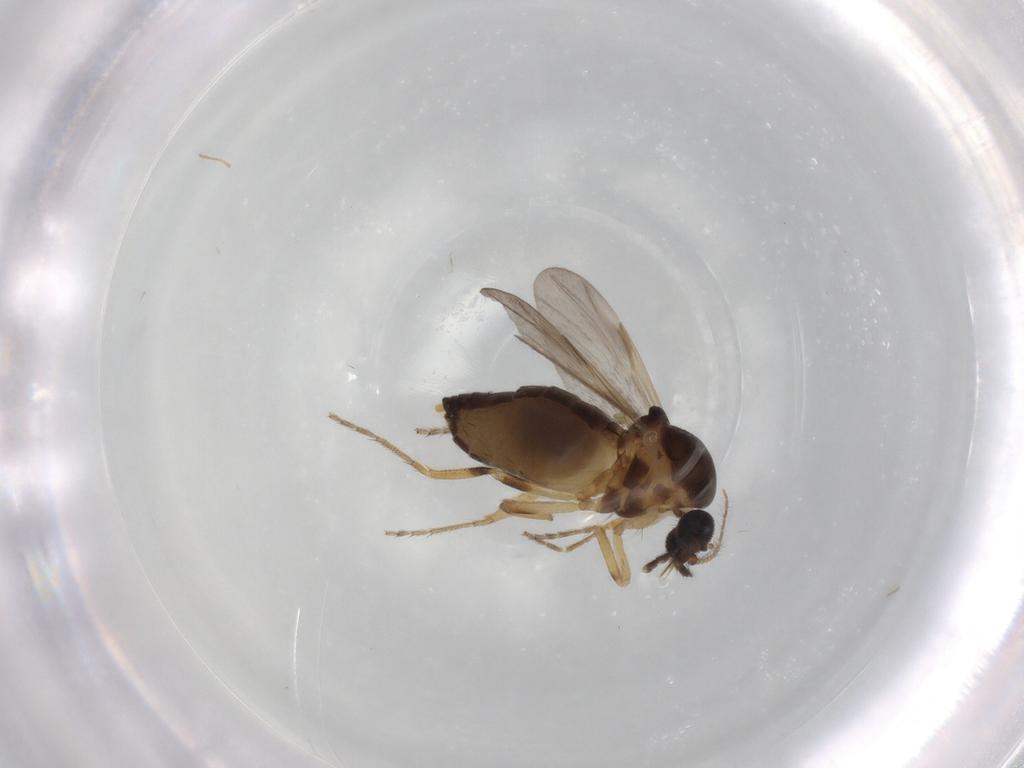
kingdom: Animalia
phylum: Arthropoda
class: Insecta
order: Diptera
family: Ceratopogonidae
